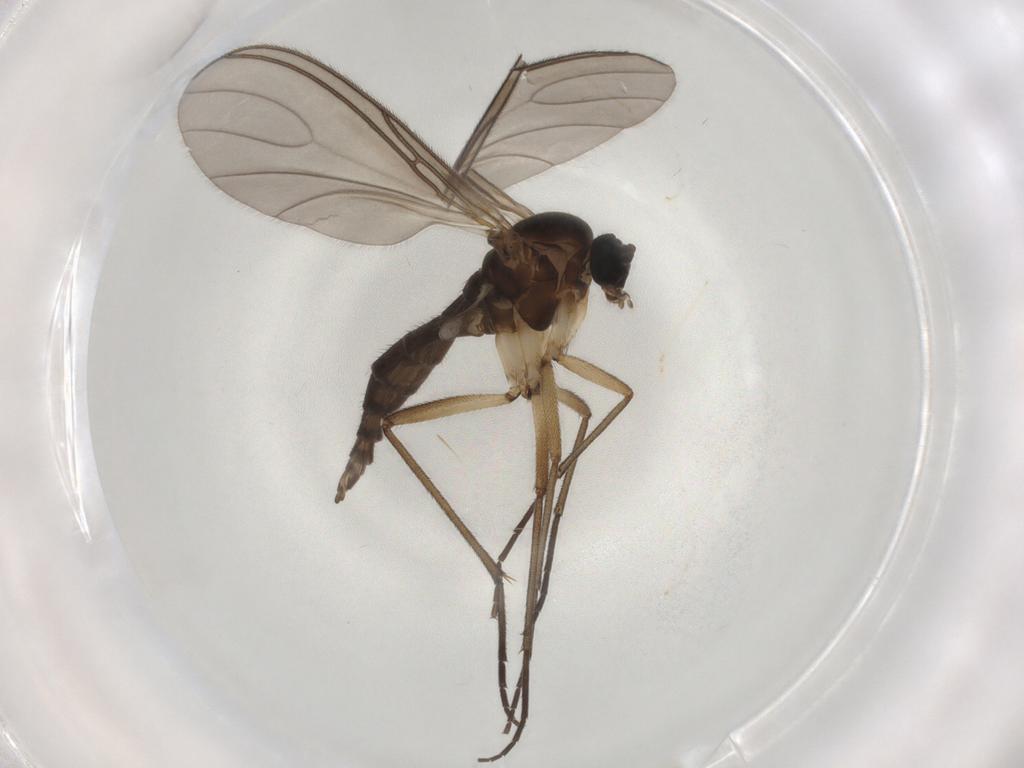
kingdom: Animalia
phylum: Arthropoda
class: Insecta
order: Diptera
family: Sciaridae
